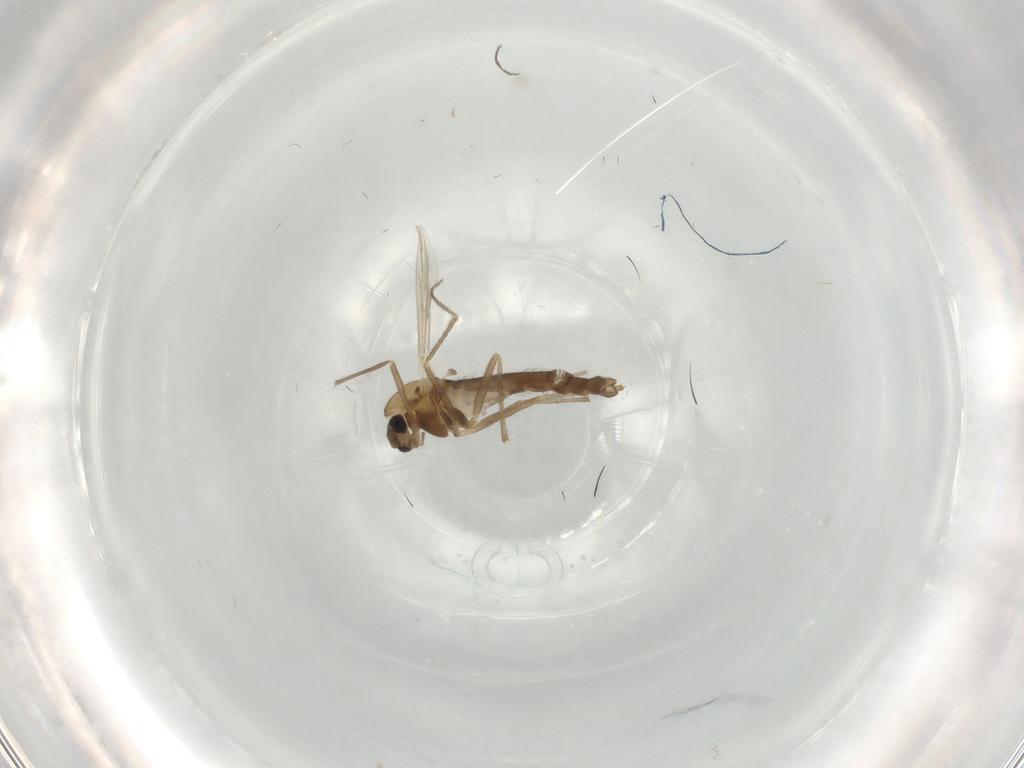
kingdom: Animalia
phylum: Arthropoda
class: Insecta
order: Diptera
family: Chironomidae
